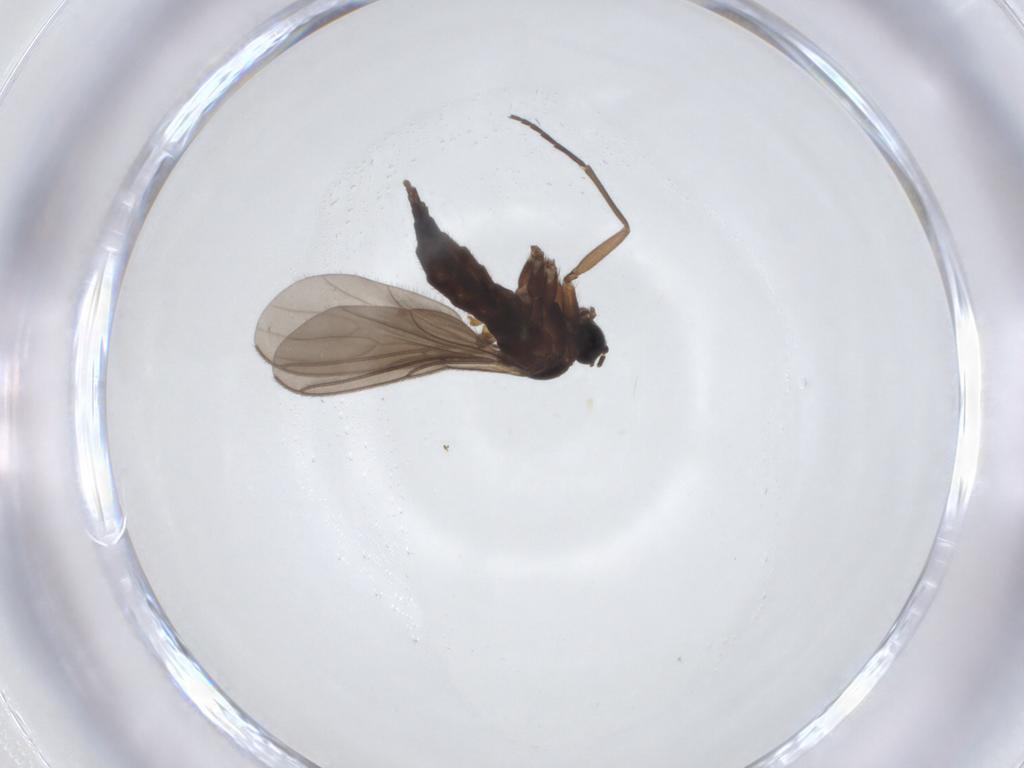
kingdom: Animalia
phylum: Arthropoda
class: Insecta
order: Diptera
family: Sciaridae
